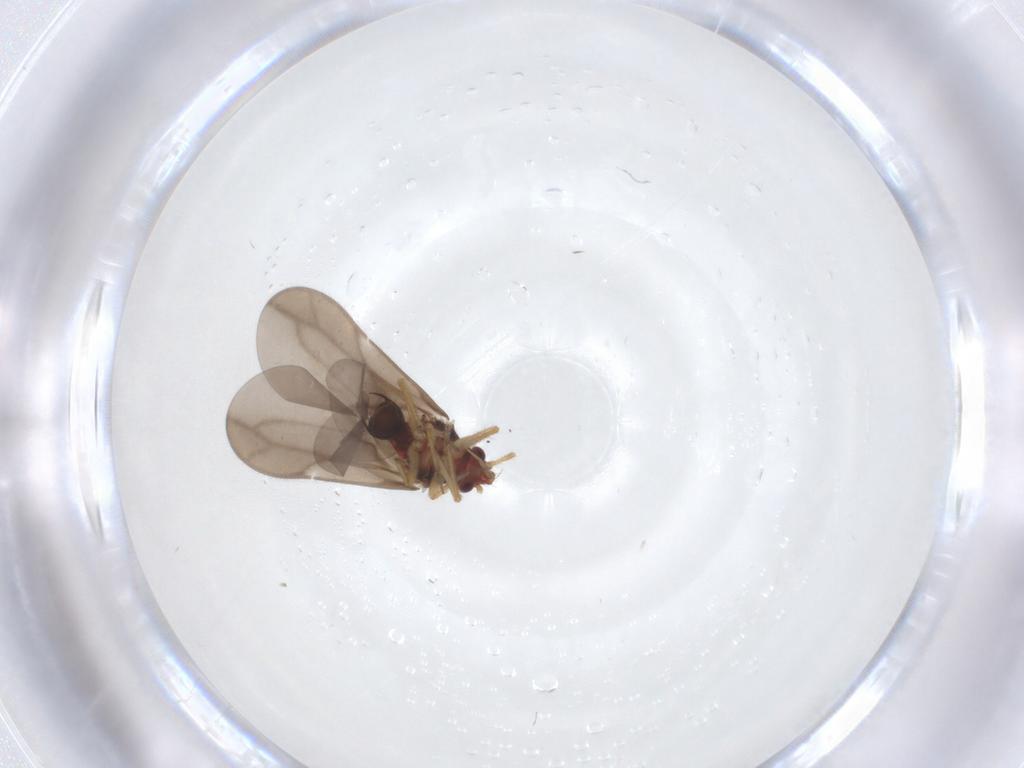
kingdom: Animalia
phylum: Arthropoda
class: Insecta
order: Hemiptera
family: Ceratocombidae
